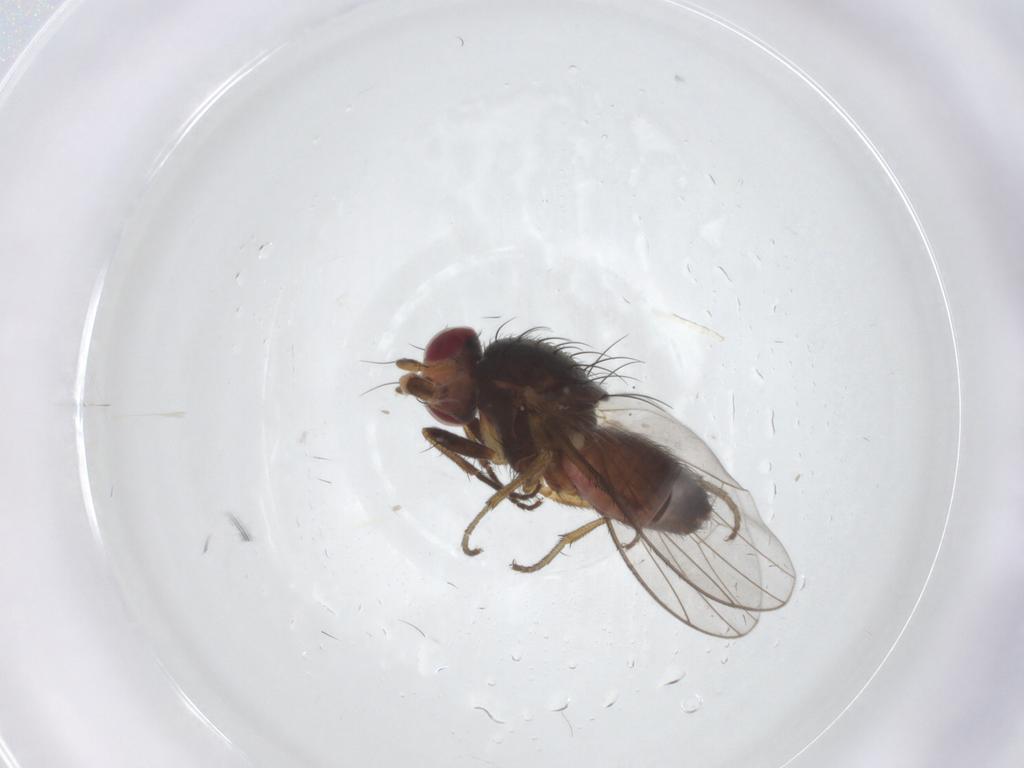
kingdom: Animalia
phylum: Arthropoda
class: Insecta
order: Diptera
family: Heleomyzidae
